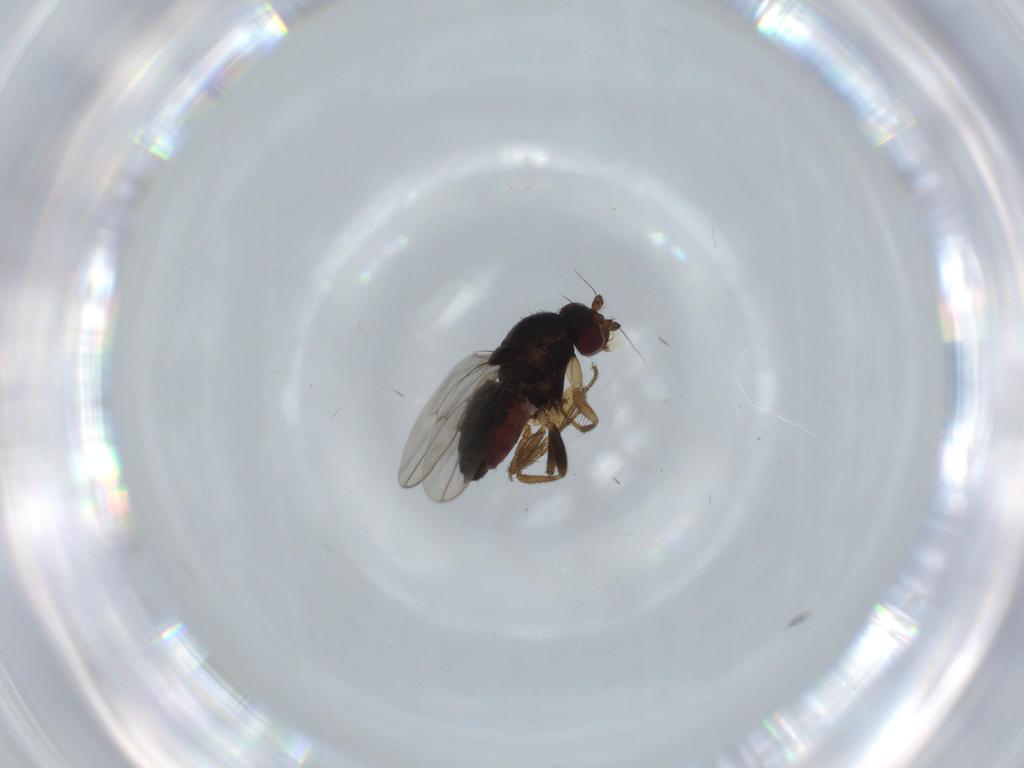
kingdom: Animalia
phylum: Arthropoda
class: Insecta
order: Diptera
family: Sphaeroceridae
